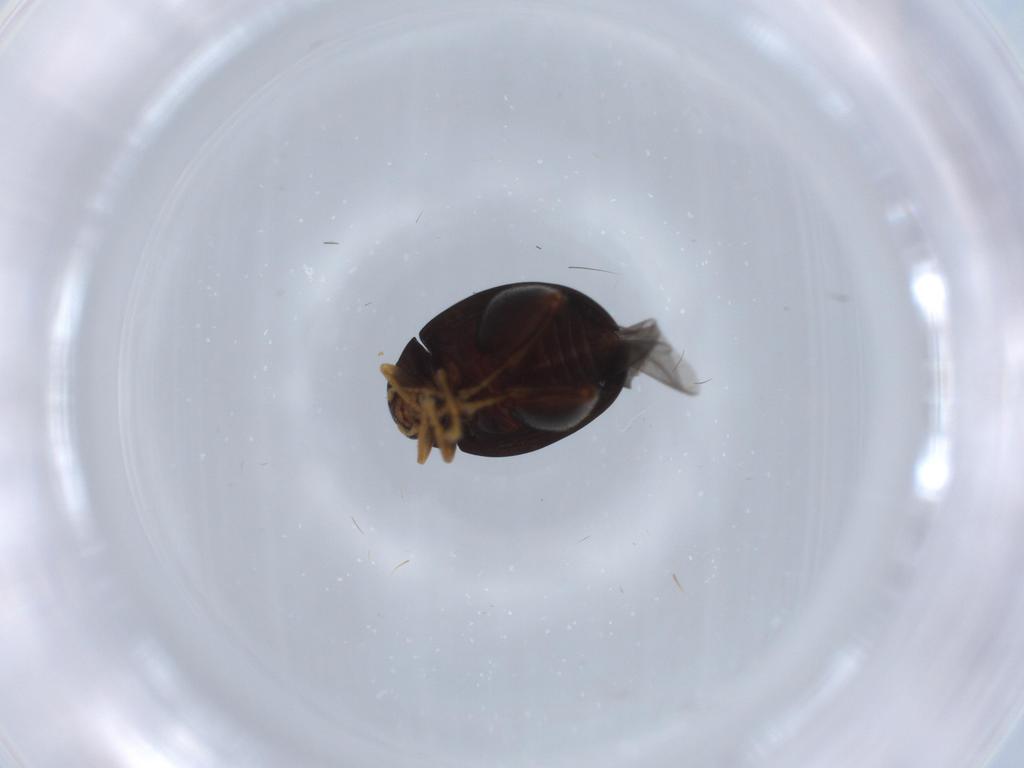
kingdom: Animalia
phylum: Arthropoda
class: Insecta
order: Coleoptera
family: Chrysomelidae
